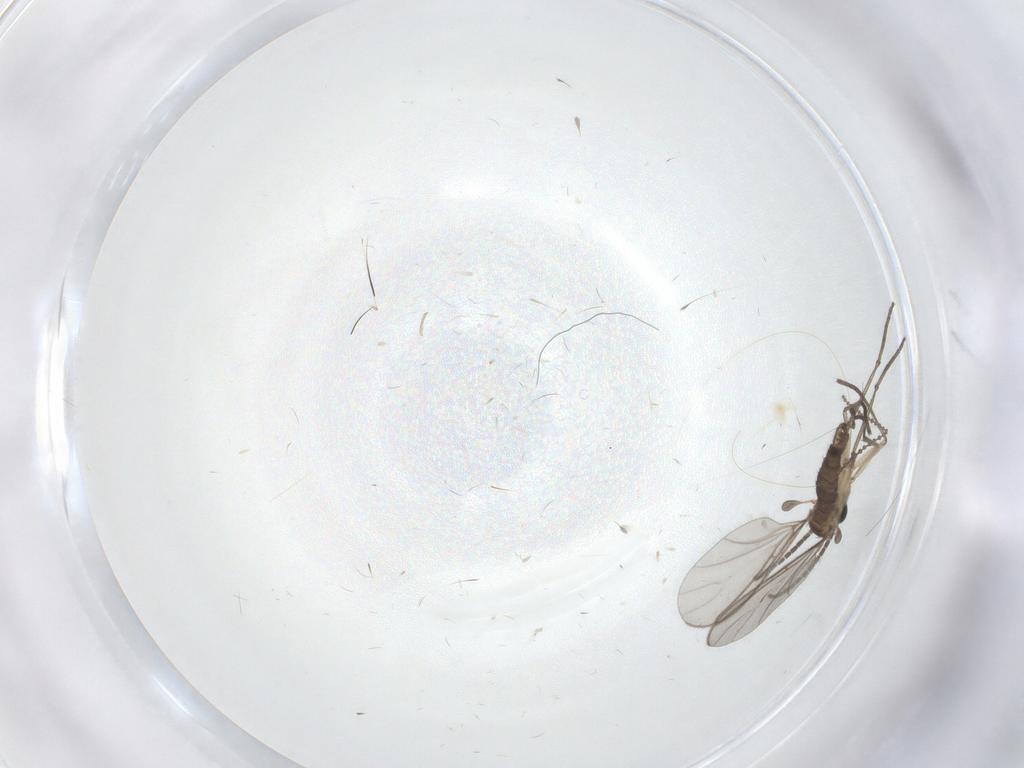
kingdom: Animalia
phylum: Arthropoda
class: Insecta
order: Diptera
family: Sciaridae
